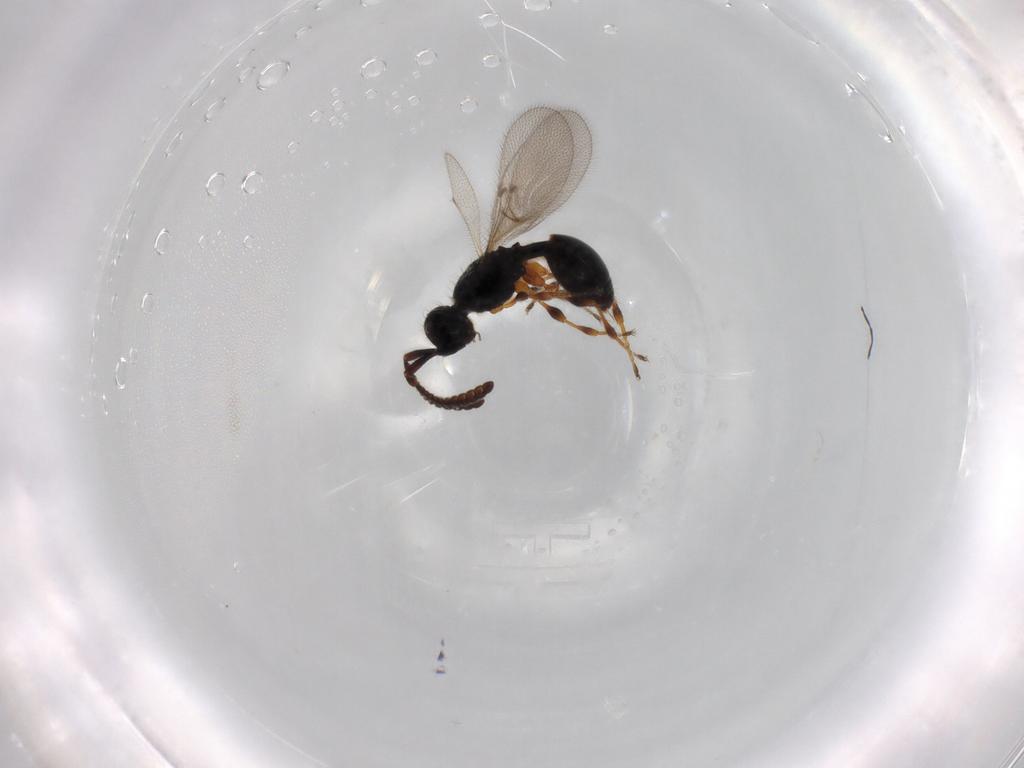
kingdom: Animalia
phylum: Arthropoda
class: Insecta
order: Hymenoptera
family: Diapriidae
